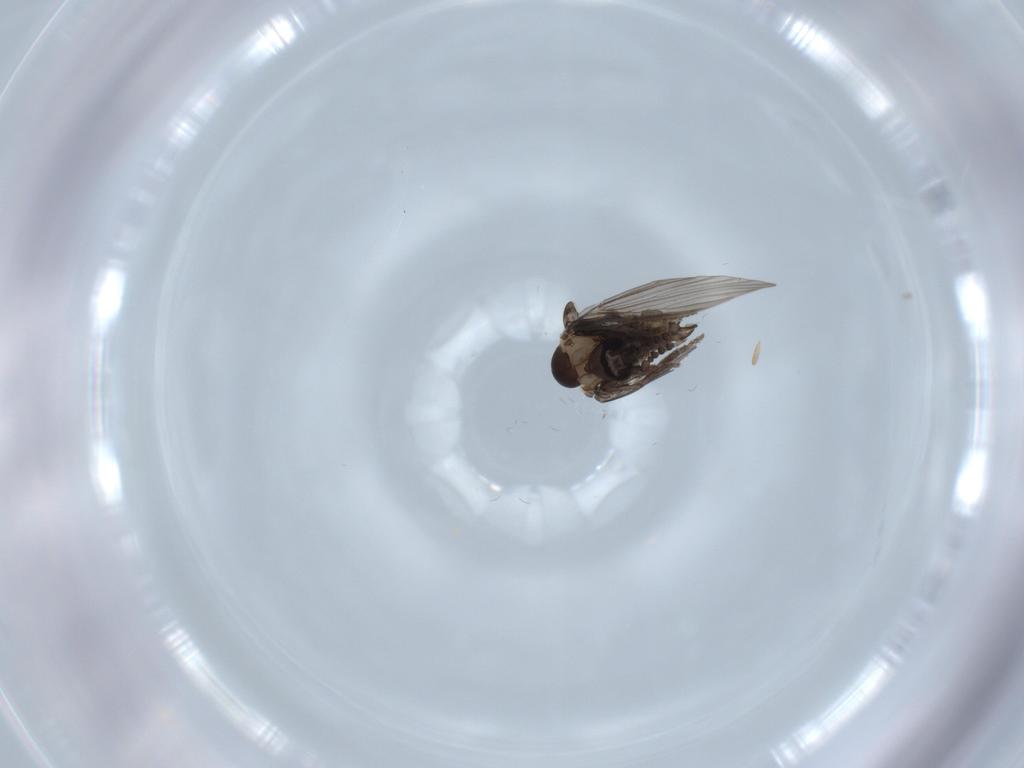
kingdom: Animalia
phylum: Arthropoda
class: Insecta
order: Diptera
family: Psychodidae
